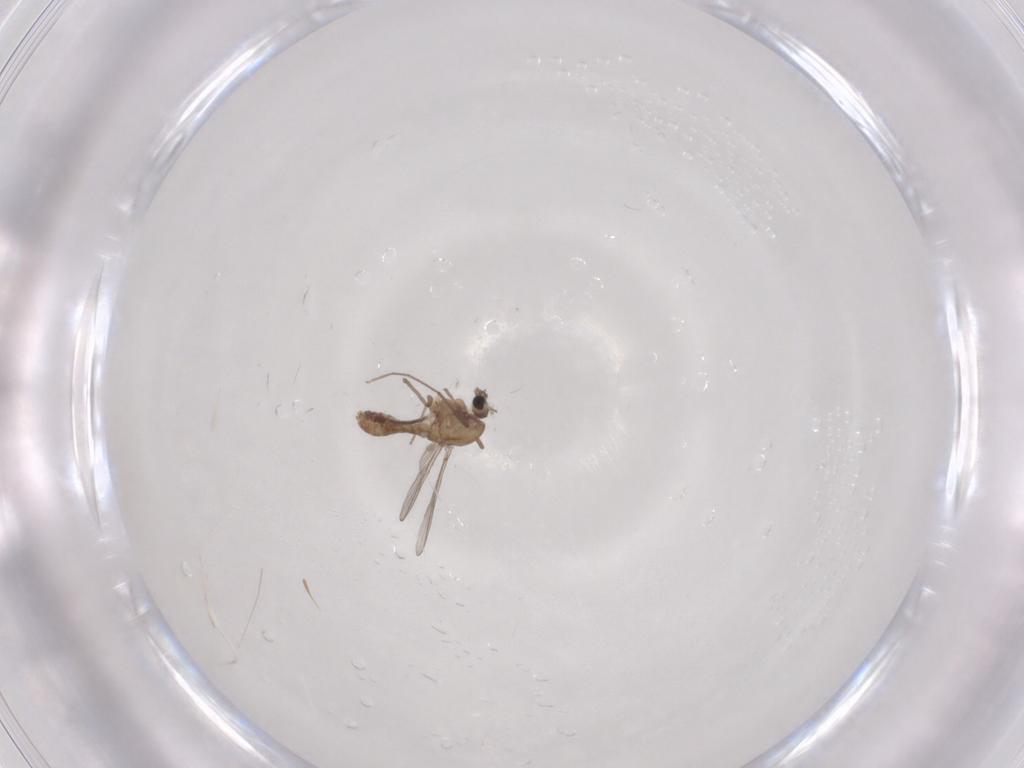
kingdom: Animalia
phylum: Arthropoda
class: Insecta
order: Diptera
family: Chironomidae
